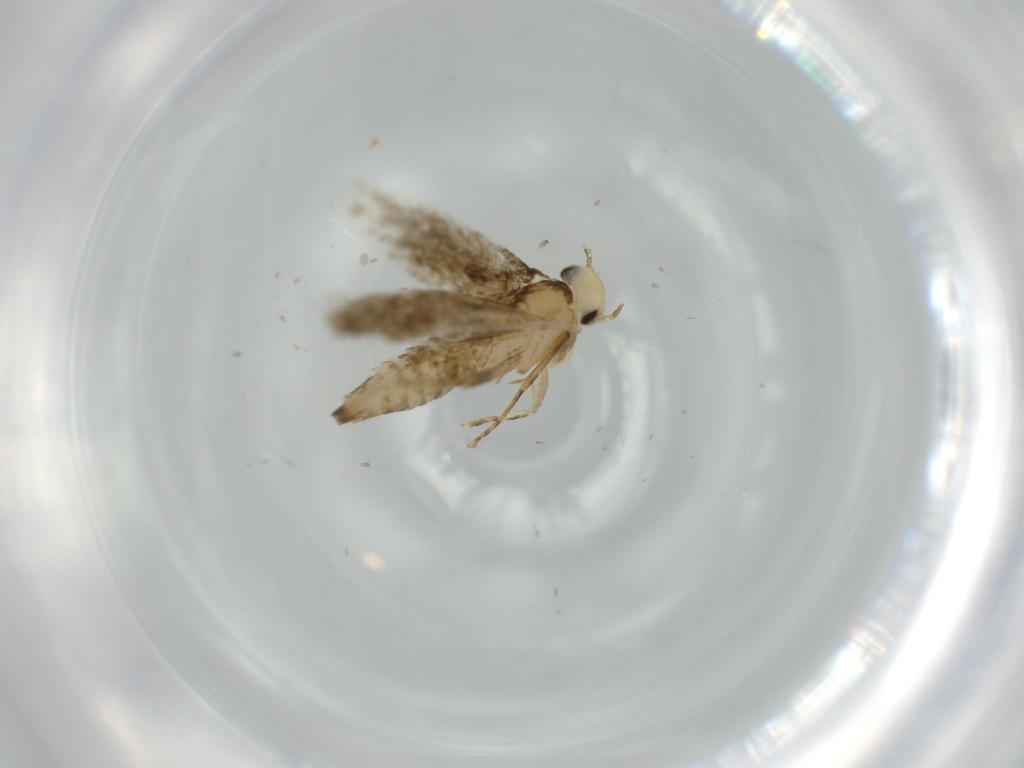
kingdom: Animalia
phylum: Arthropoda
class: Insecta
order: Lepidoptera
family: Tineidae
